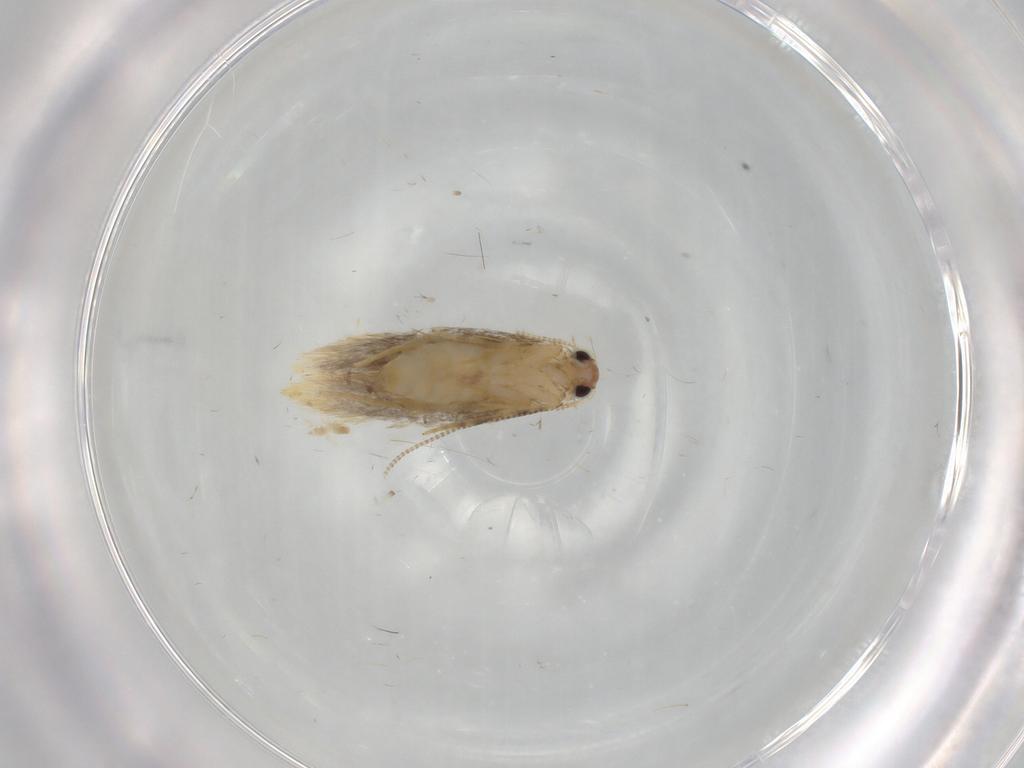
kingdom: Animalia
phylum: Arthropoda
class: Insecta
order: Lepidoptera
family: Tineidae
